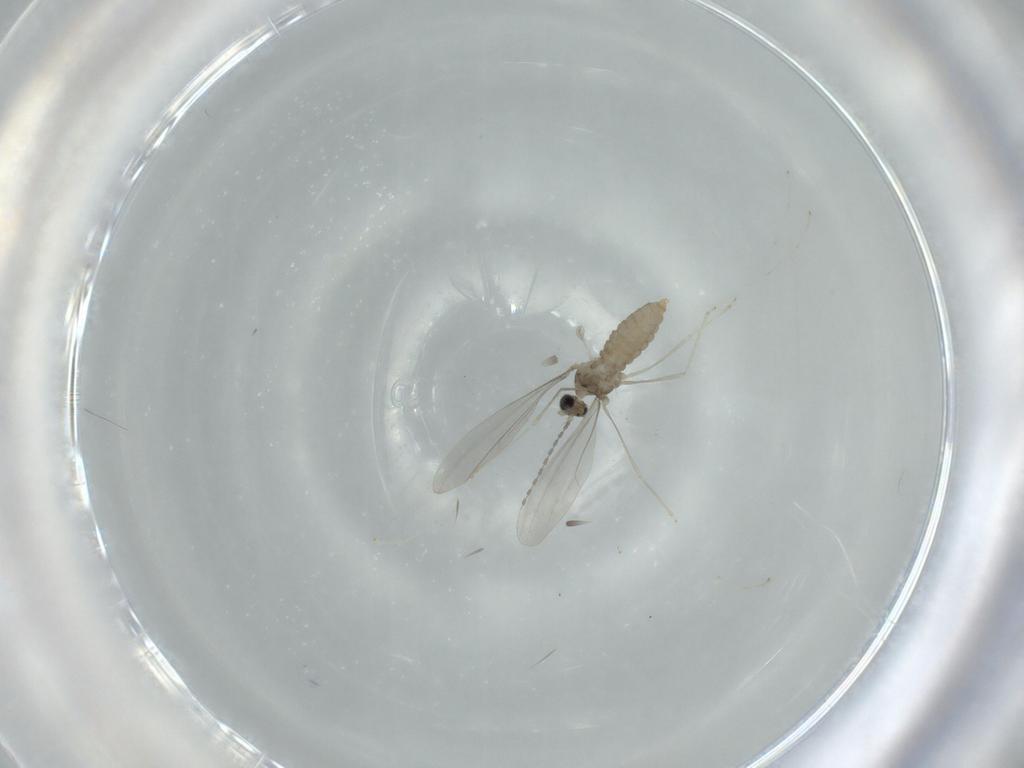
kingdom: Animalia
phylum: Arthropoda
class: Insecta
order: Diptera
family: Cecidomyiidae
